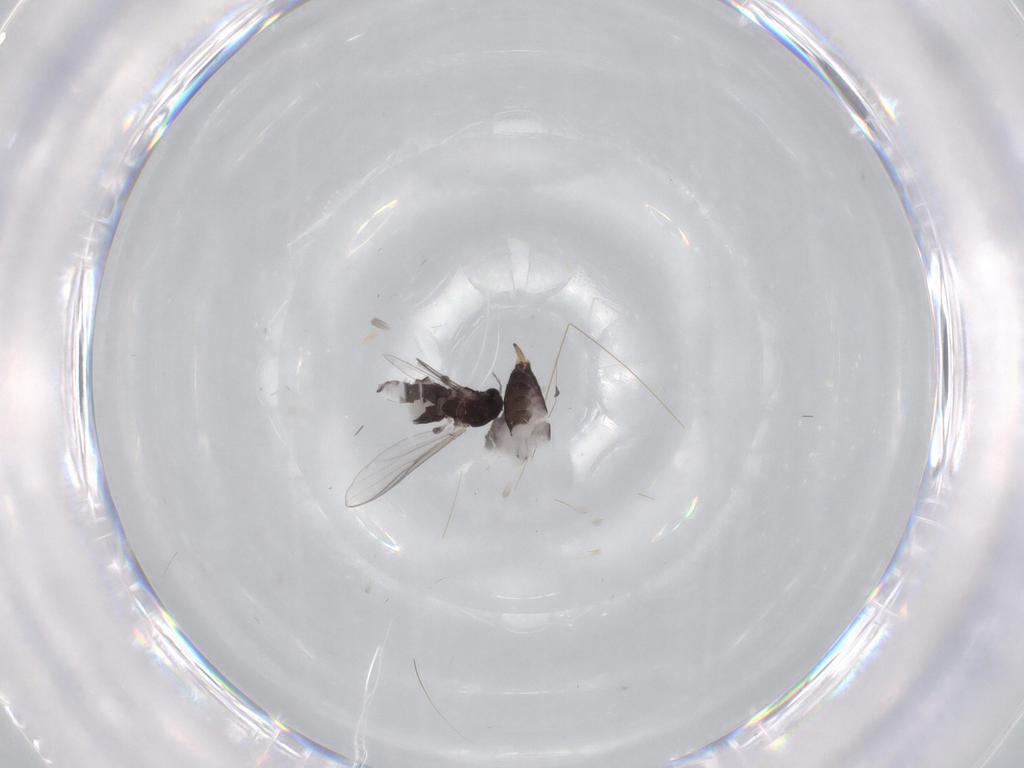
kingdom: Animalia
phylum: Arthropoda
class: Insecta
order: Diptera
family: Chironomidae
